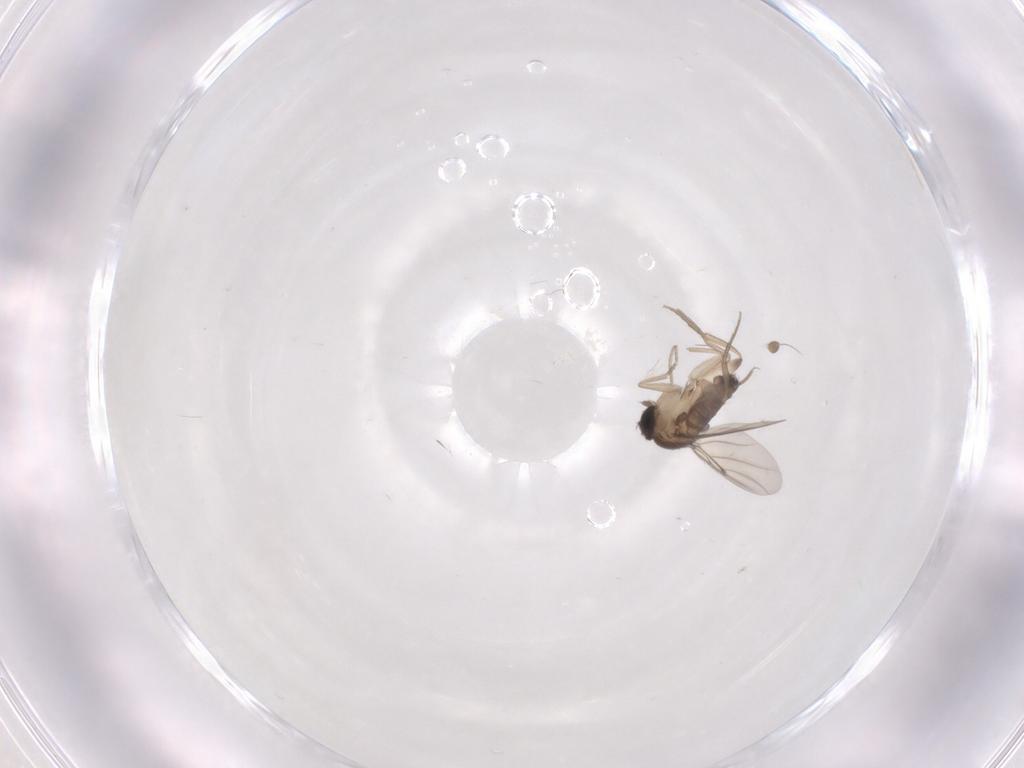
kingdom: Animalia
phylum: Arthropoda
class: Insecta
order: Diptera
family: Phoridae
